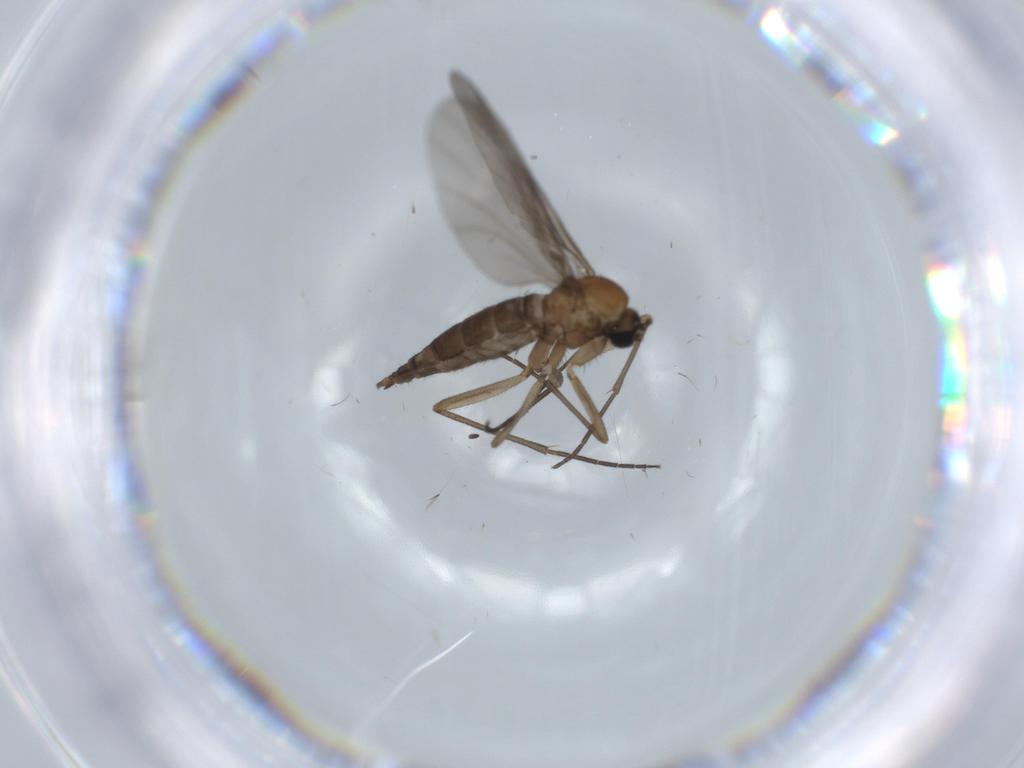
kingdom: Animalia
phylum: Arthropoda
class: Insecta
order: Diptera
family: Sciaridae
